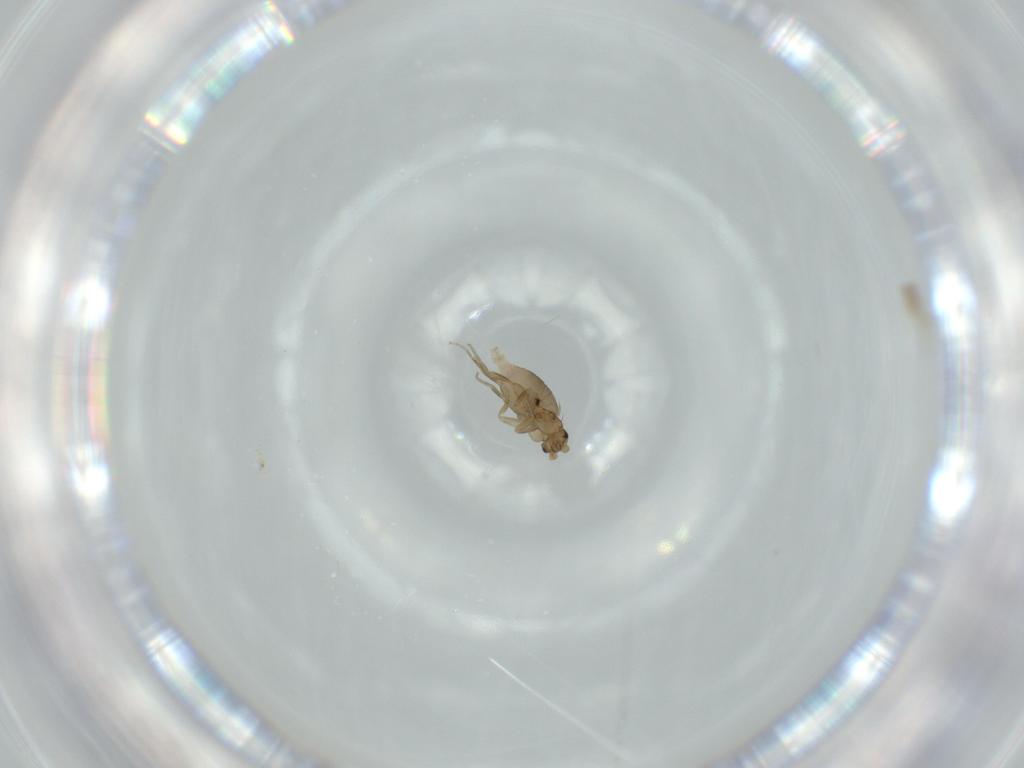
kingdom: Animalia
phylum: Arthropoda
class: Insecta
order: Diptera
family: Phoridae
